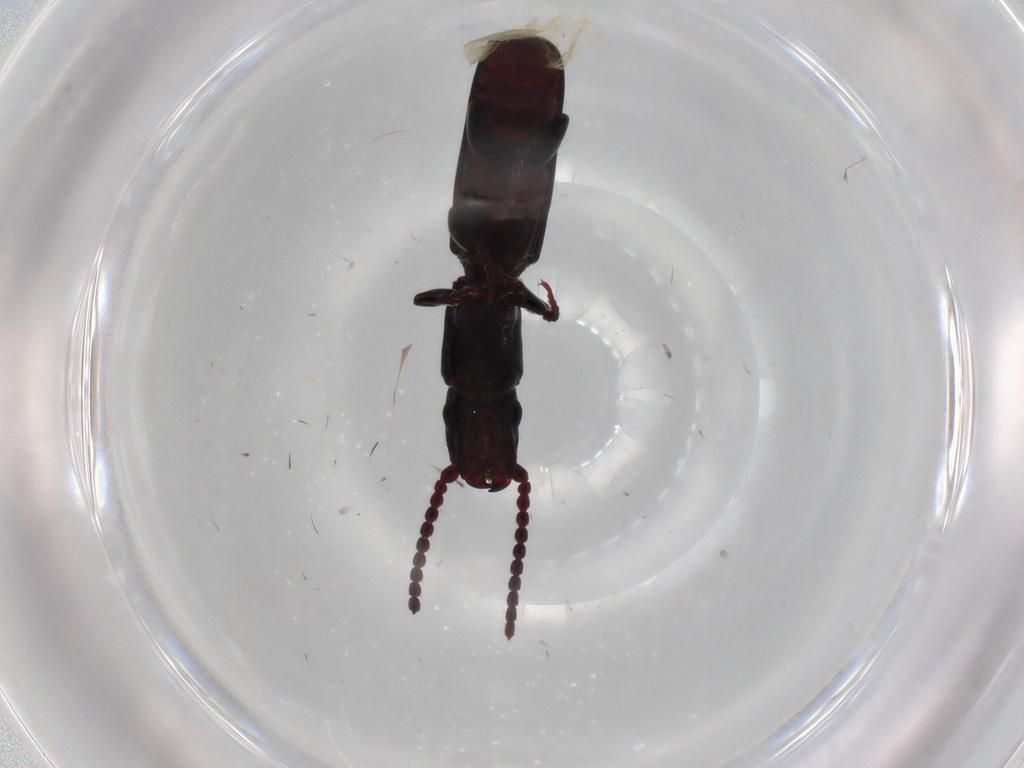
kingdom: Animalia
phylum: Arthropoda
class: Insecta
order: Coleoptera
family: Passandridae
